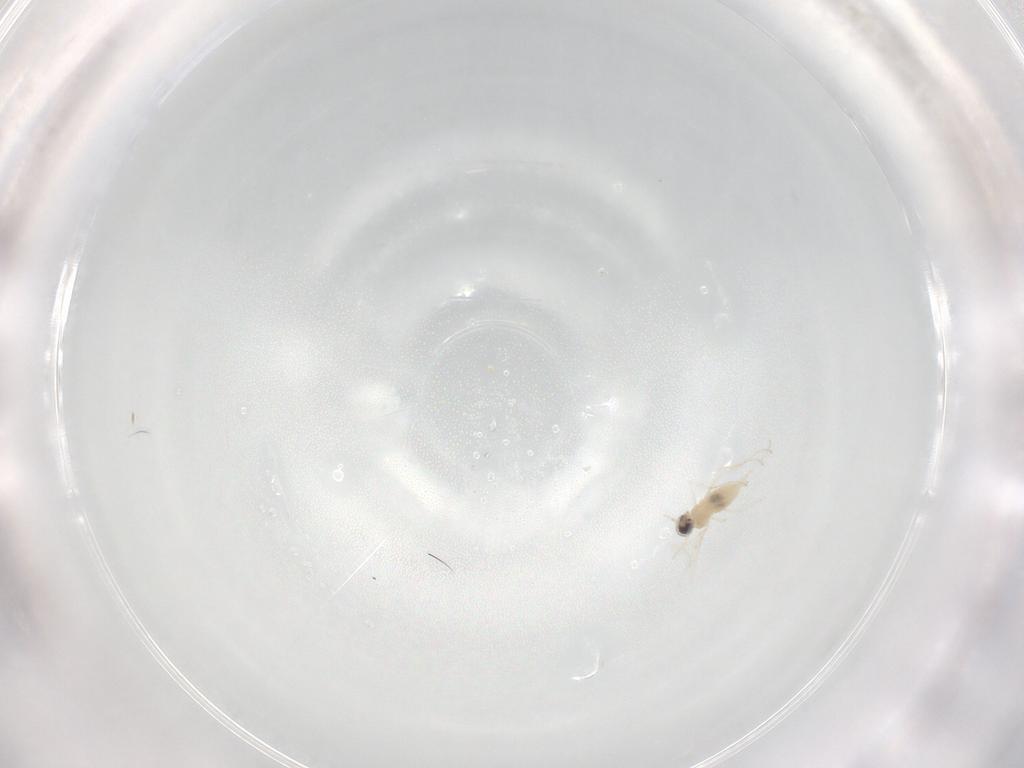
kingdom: Animalia
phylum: Arthropoda
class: Insecta
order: Diptera
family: Cecidomyiidae
